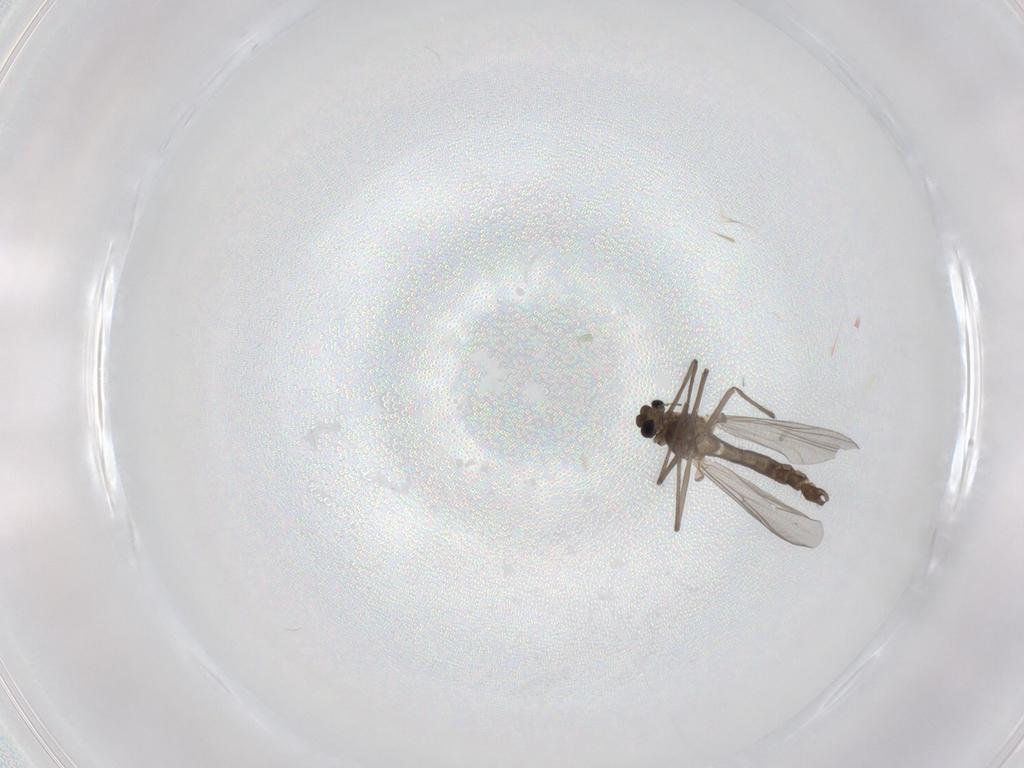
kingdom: Animalia
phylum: Arthropoda
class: Insecta
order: Diptera
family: Chironomidae
